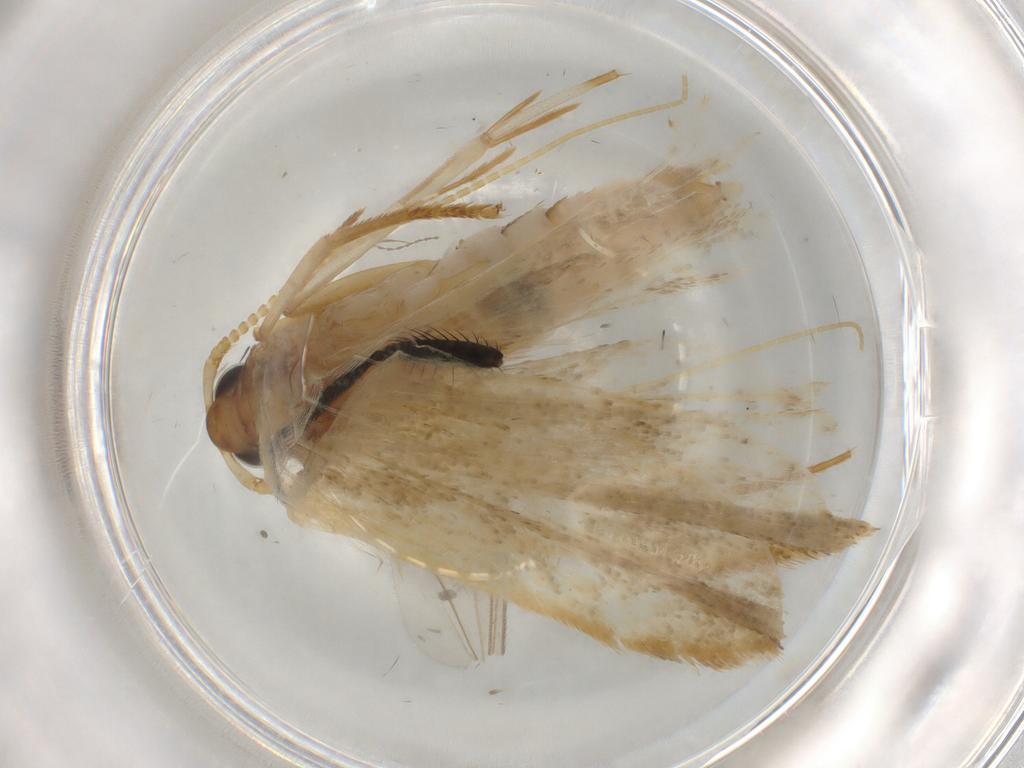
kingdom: Animalia
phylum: Arthropoda
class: Insecta
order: Lepidoptera
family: Lecithoceridae
